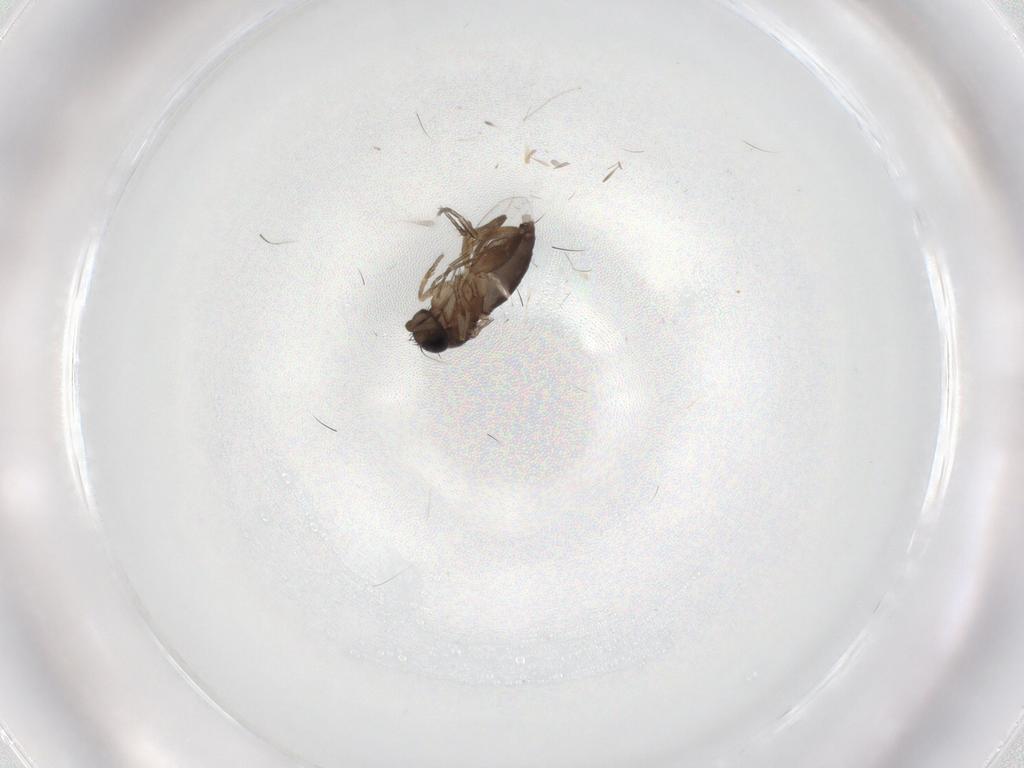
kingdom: Animalia
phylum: Arthropoda
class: Insecta
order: Diptera
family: Phoridae
